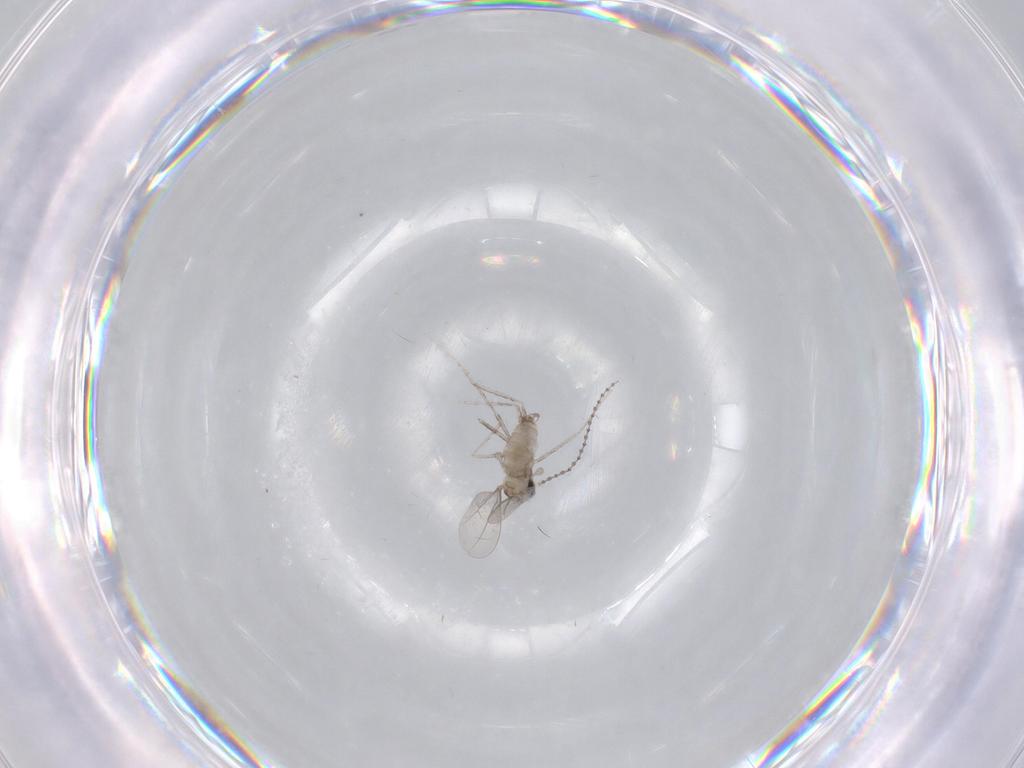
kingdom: Animalia
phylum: Arthropoda
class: Insecta
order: Diptera
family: Cecidomyiidae
